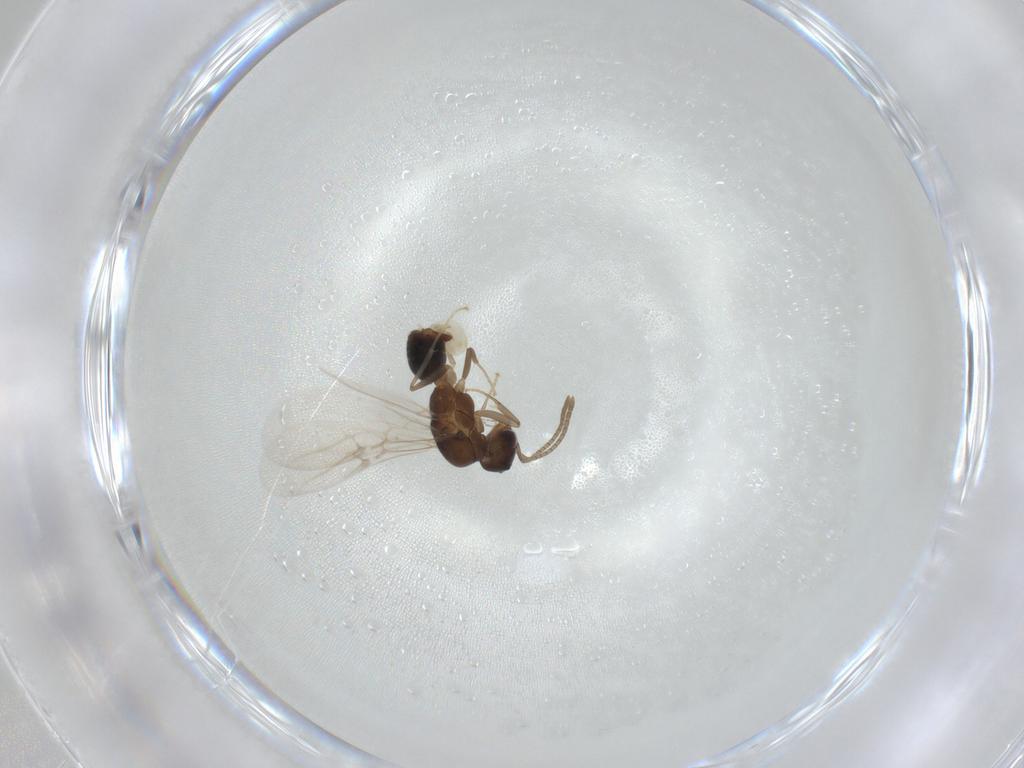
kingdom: Animalia
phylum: Arthropoda
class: Insecta
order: Hymenoptera
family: Formicidae
